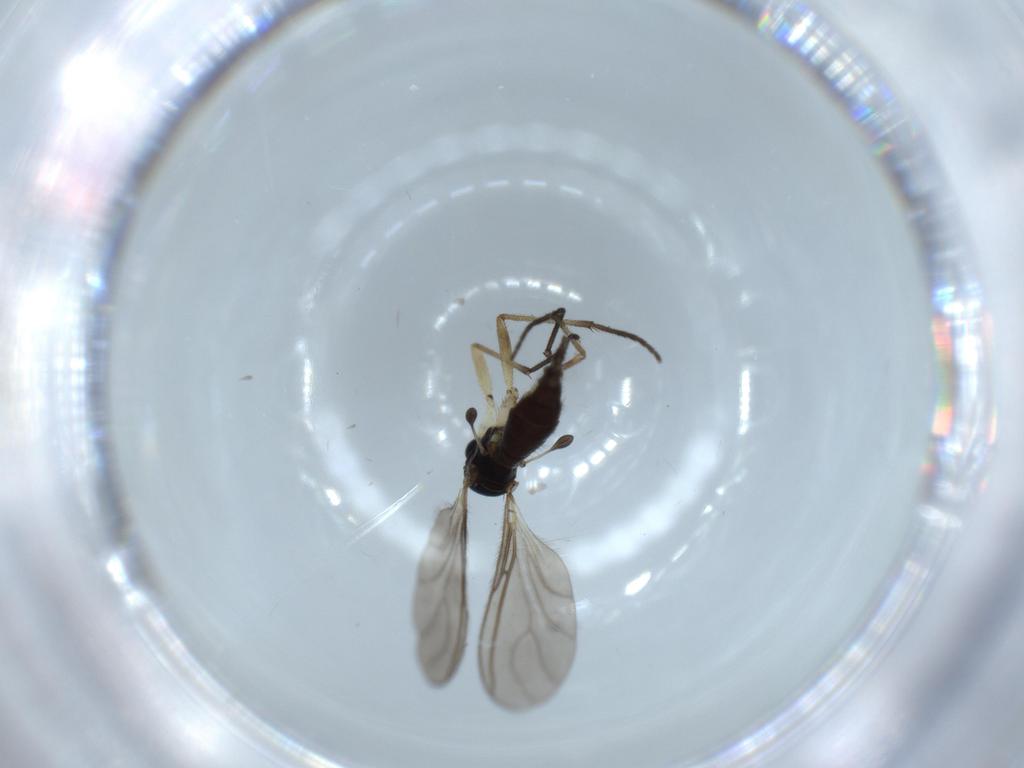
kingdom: Animalia
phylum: Arthropoda
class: Insecta
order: Diptera
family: Sciaridae
